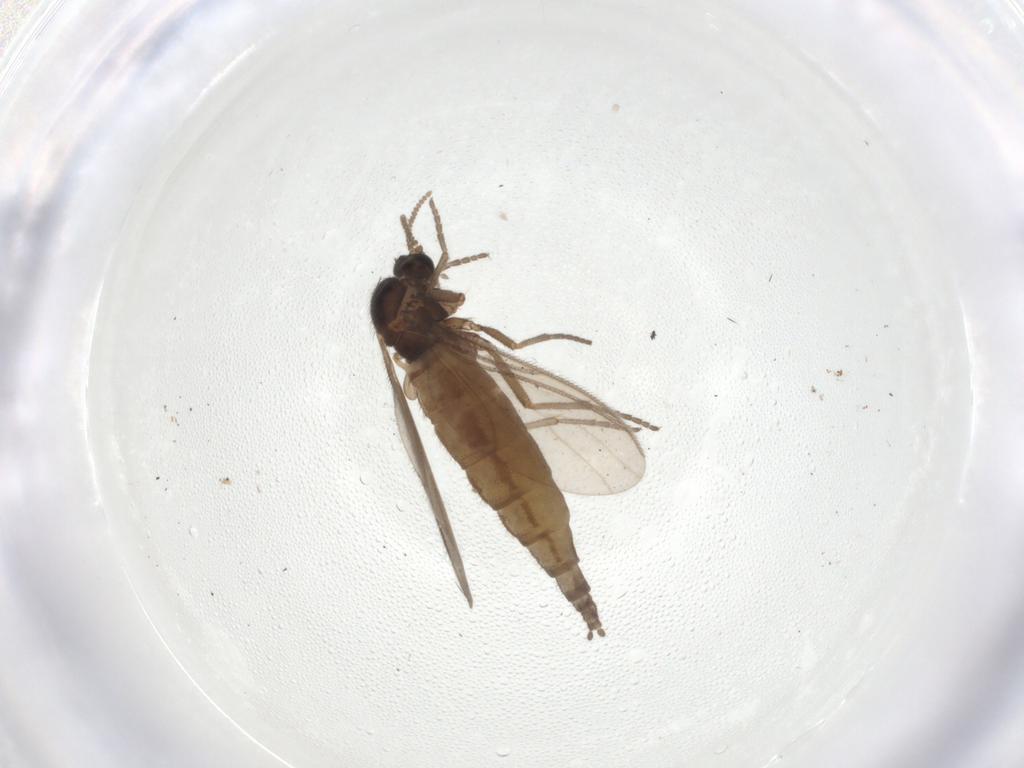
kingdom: Animalia
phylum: Arthropoda
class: Insecta
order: Diptera
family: Sciaridae
